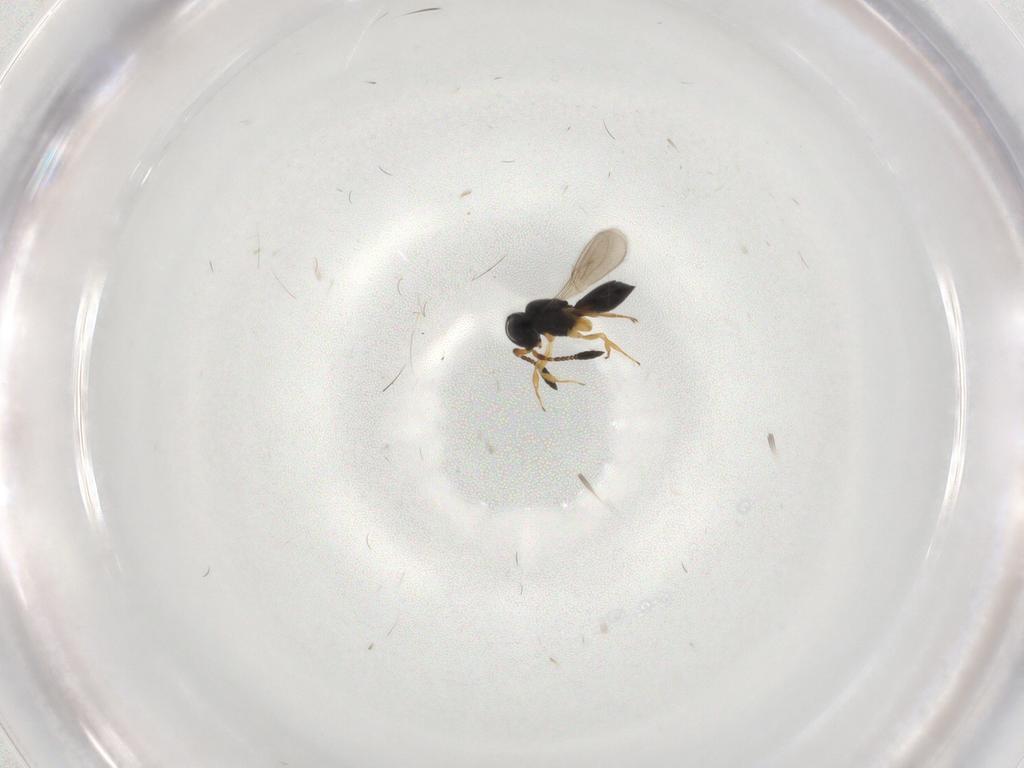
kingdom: Animalia
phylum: Arthropoda
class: Insecta
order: Hymenoptera
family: Scelionidae
